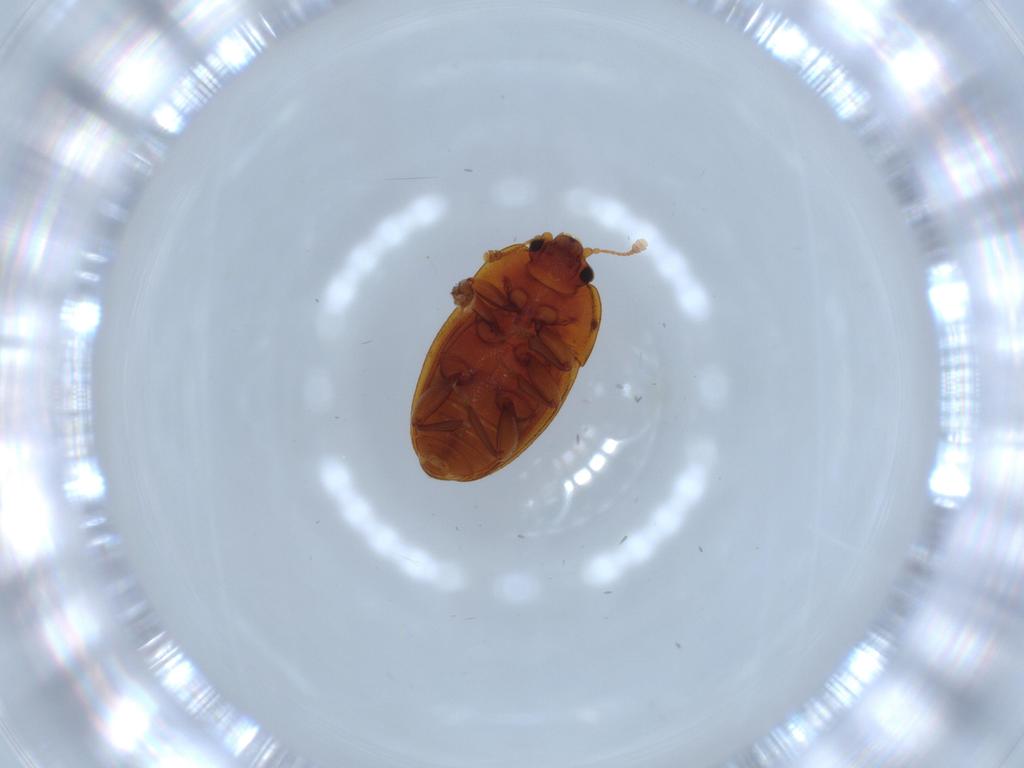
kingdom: Animalia
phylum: Arthropoda
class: Insecta
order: Coleoptera
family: Nitidulidae
